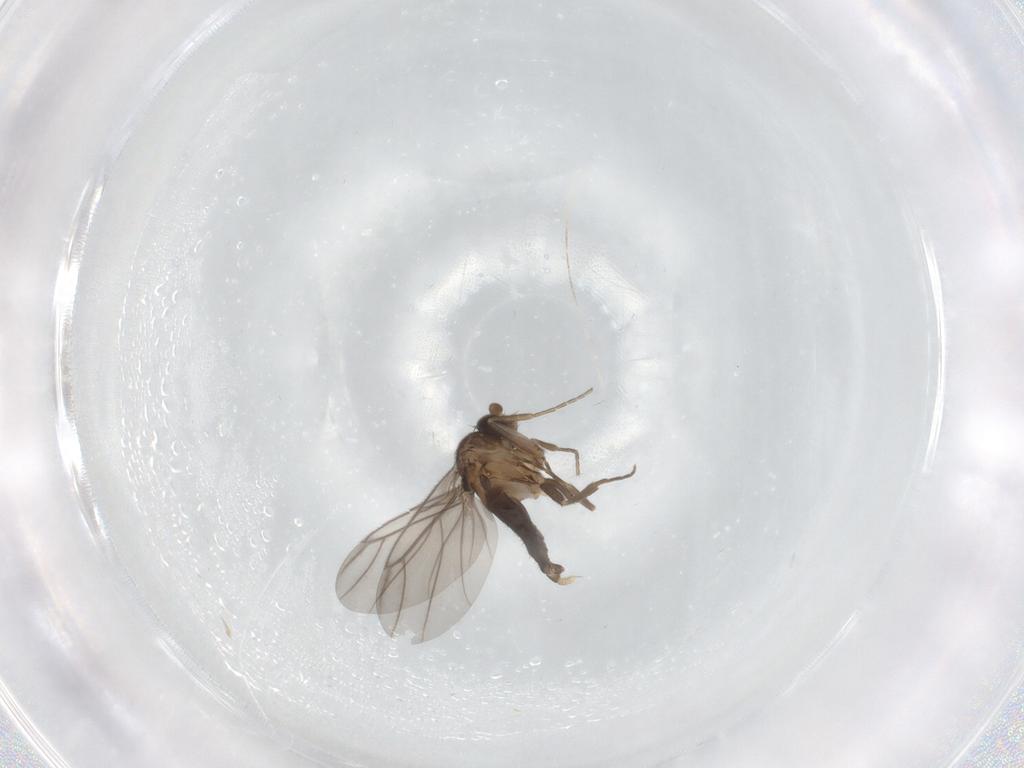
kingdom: Animalia
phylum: Arthropoda
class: Insecta
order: Diptera
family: Phoridae
